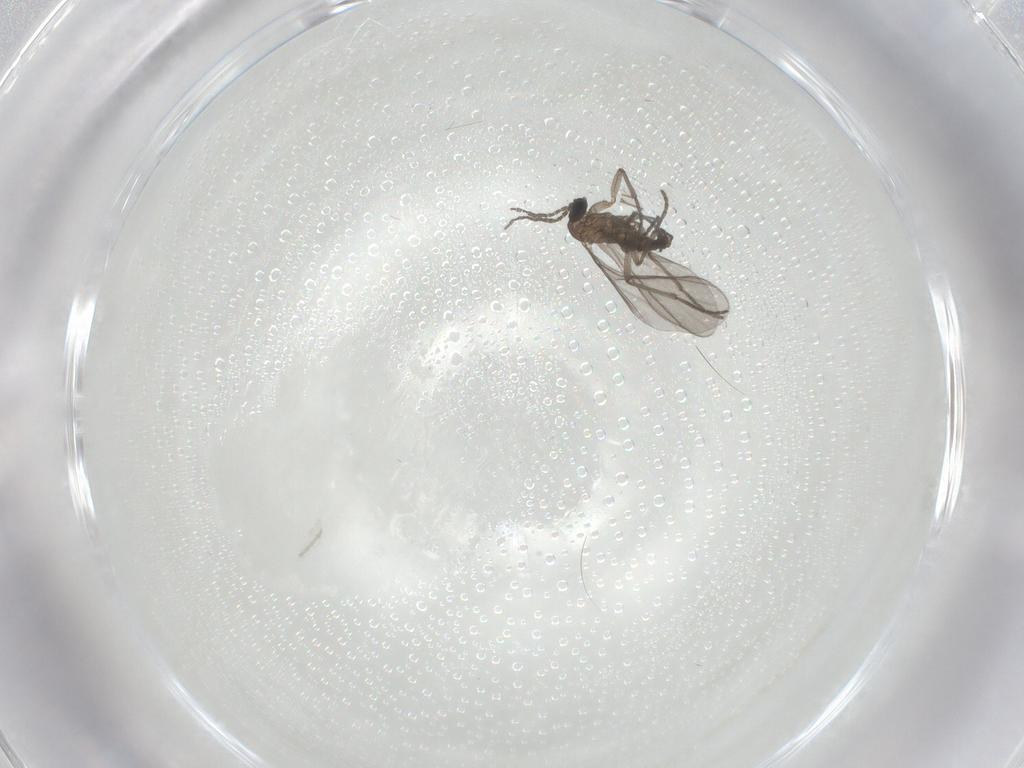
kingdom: Animalia
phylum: Arthropoda
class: Insecta
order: Diptera
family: Sciaridae
